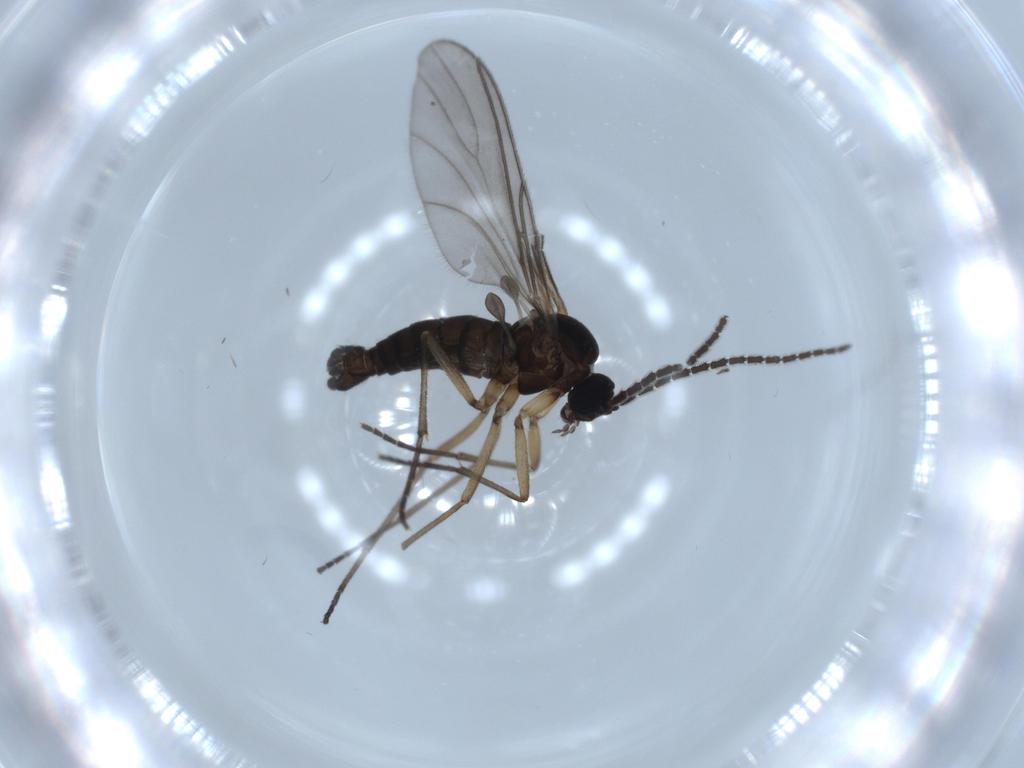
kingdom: Animalia
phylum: Arthropoda
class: Insecta
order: Diptera
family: Sciaridae
